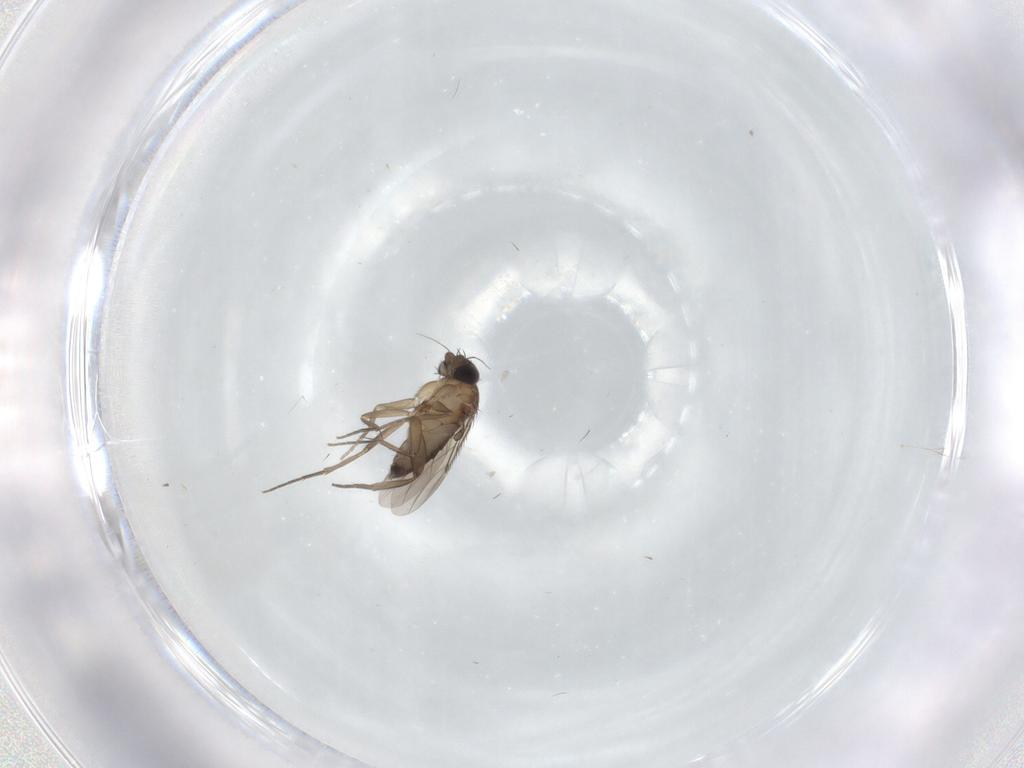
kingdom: Animalia
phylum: Arthropoda
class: Insecta
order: Diptera
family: Phoridae
